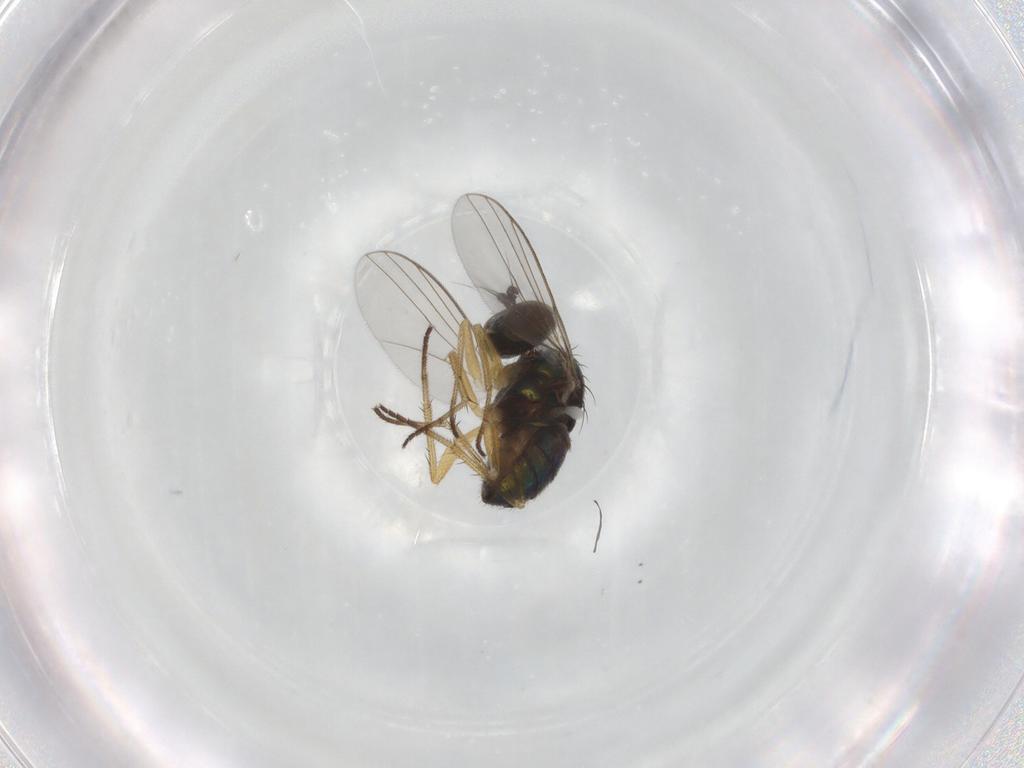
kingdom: Animalia
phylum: Arthropoda
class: Insecta
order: Diptera
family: Dolichopodidae
